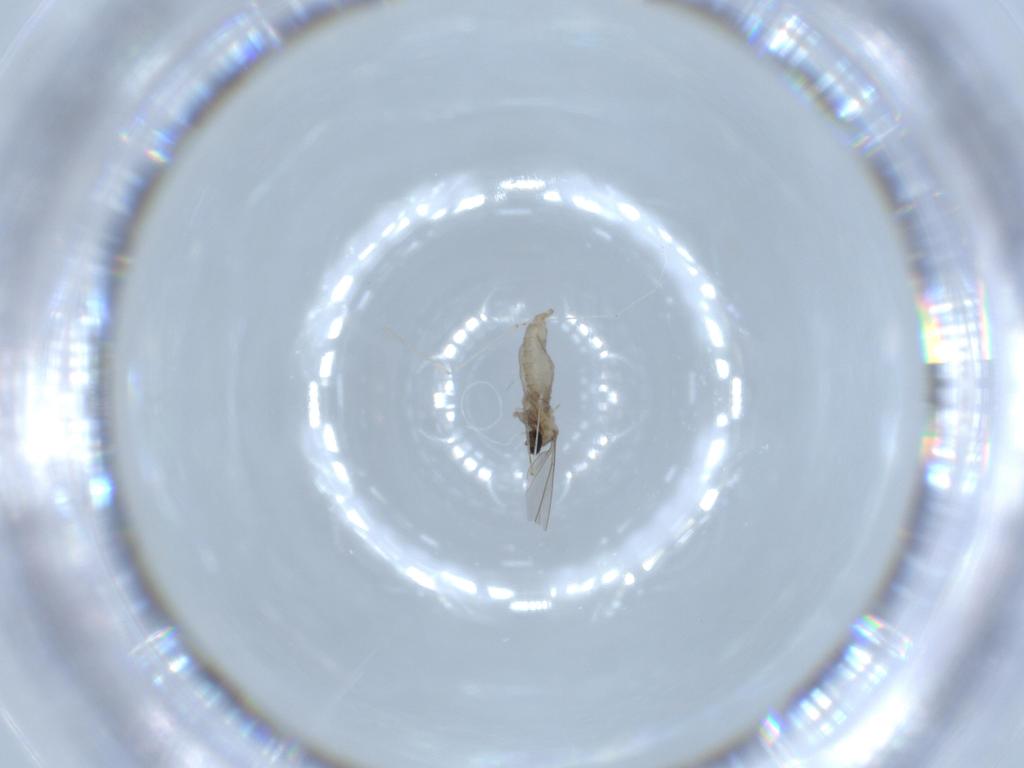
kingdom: Animalia
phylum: Arthropoda
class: Insecta
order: Diptera
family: Cecidomyiidae
